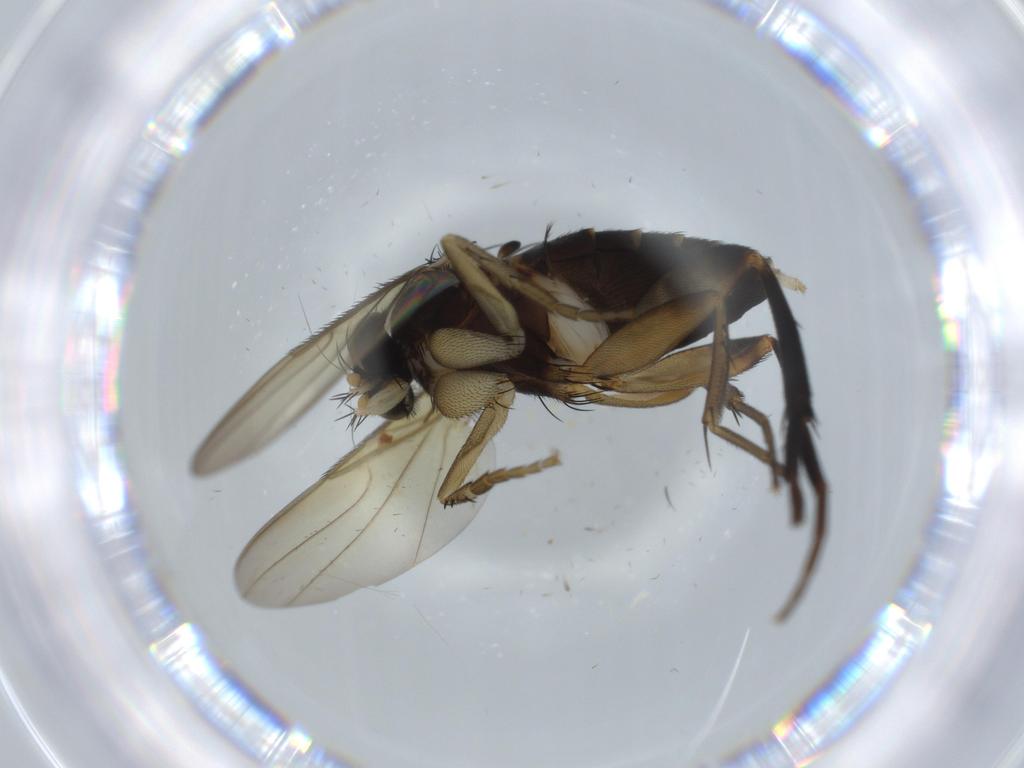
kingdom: Animalia
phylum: Arthropoda
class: Insecta
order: Diptera
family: Phoridae
